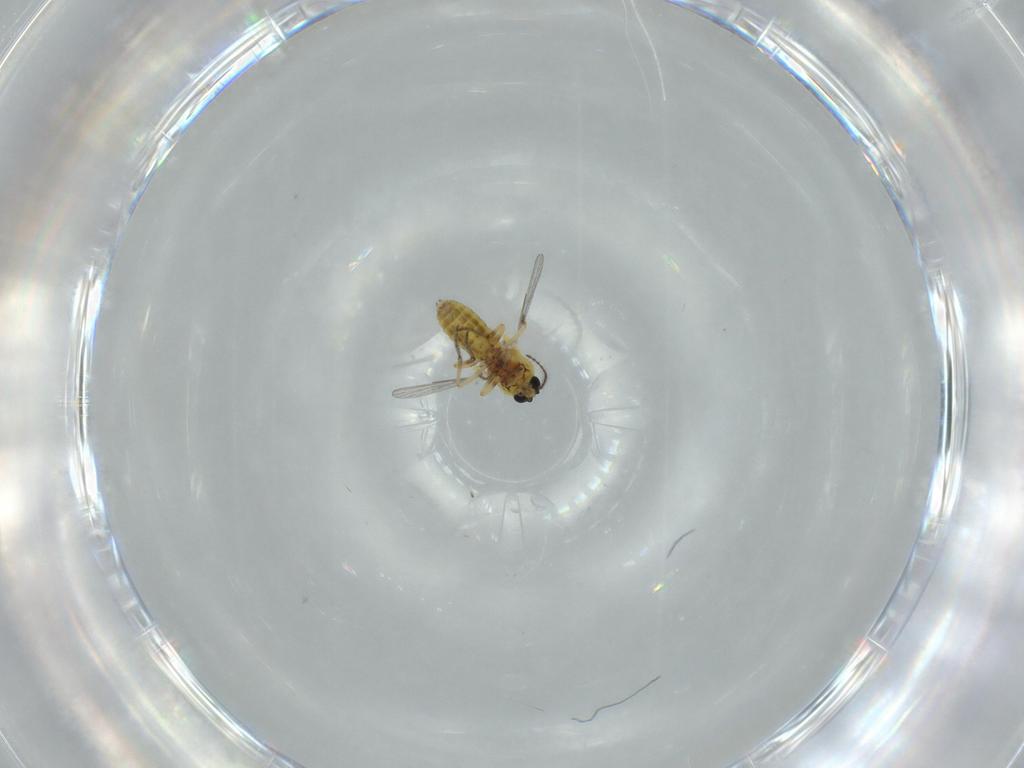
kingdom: Animalia
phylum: Arthropoda
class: Insecta
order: Diptera
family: Ceratopogonidae
